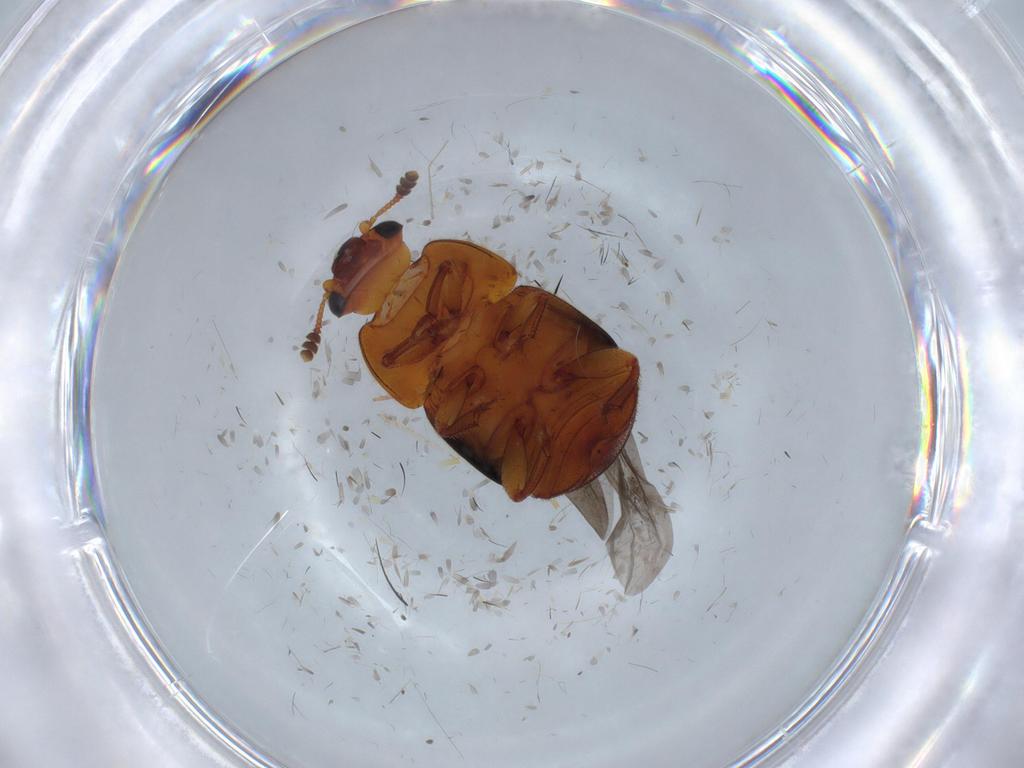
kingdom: Animalia
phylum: Arthropoda
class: Insecta
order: Coleoptera
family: Nitidulidae
